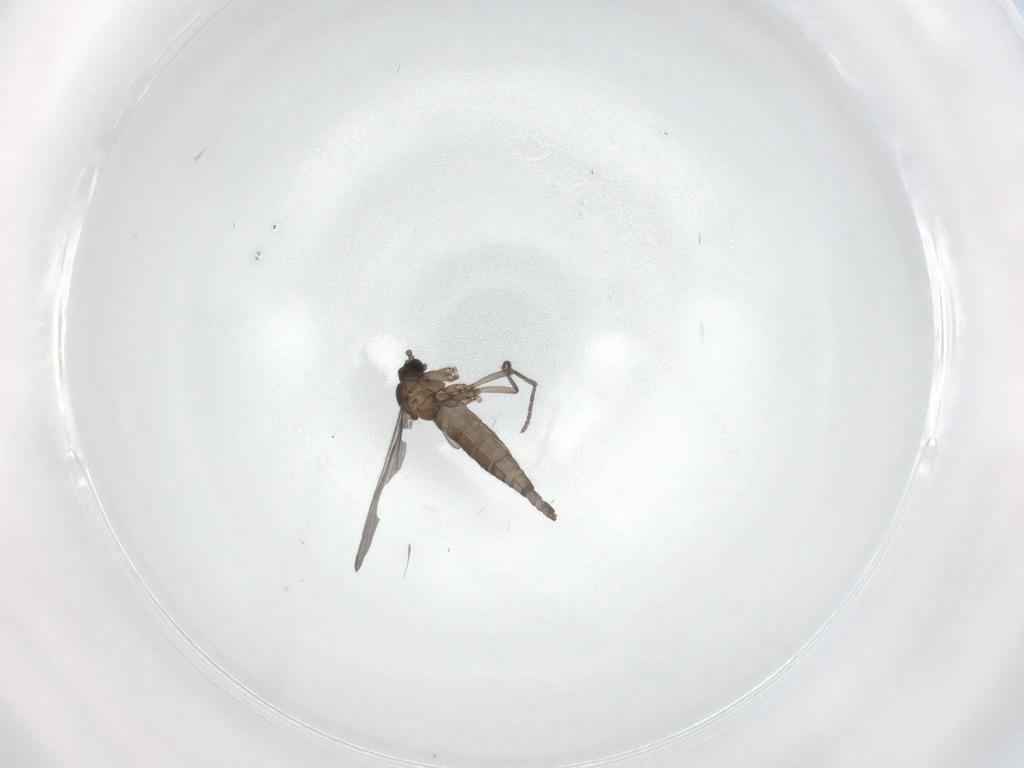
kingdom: Animalia
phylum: Arthropoda
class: Insecta
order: Diptera
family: Sciaridae
